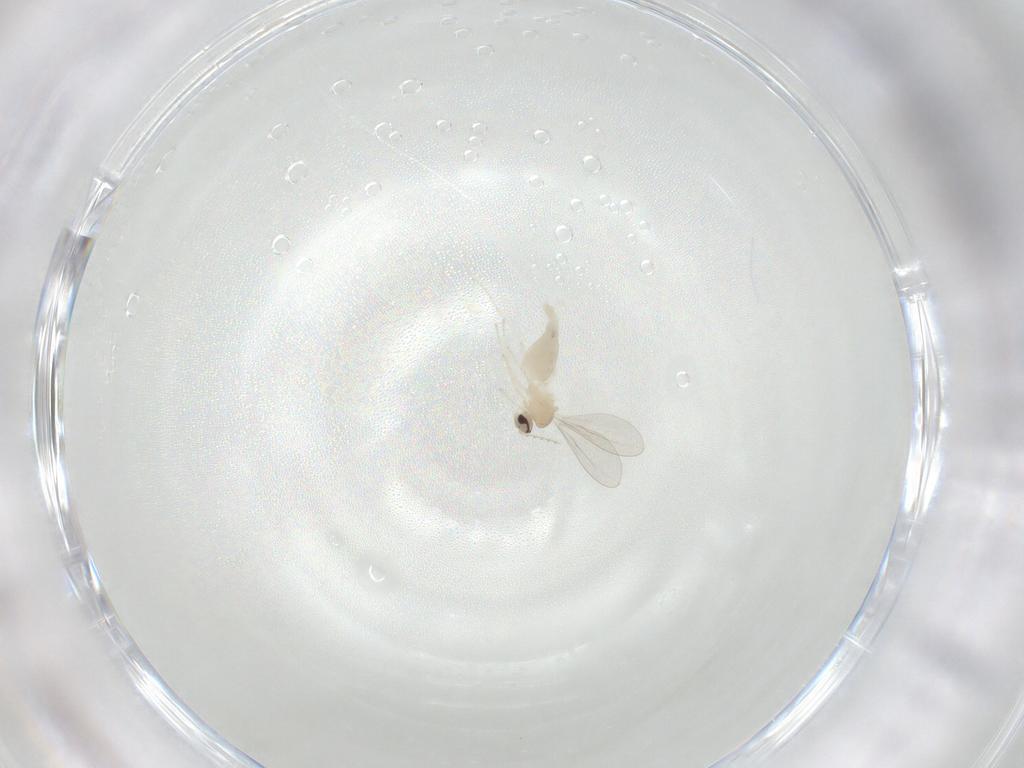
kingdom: Animalia
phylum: Arthropoda
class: Insecta
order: Diptera
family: Cecidomyiidae
